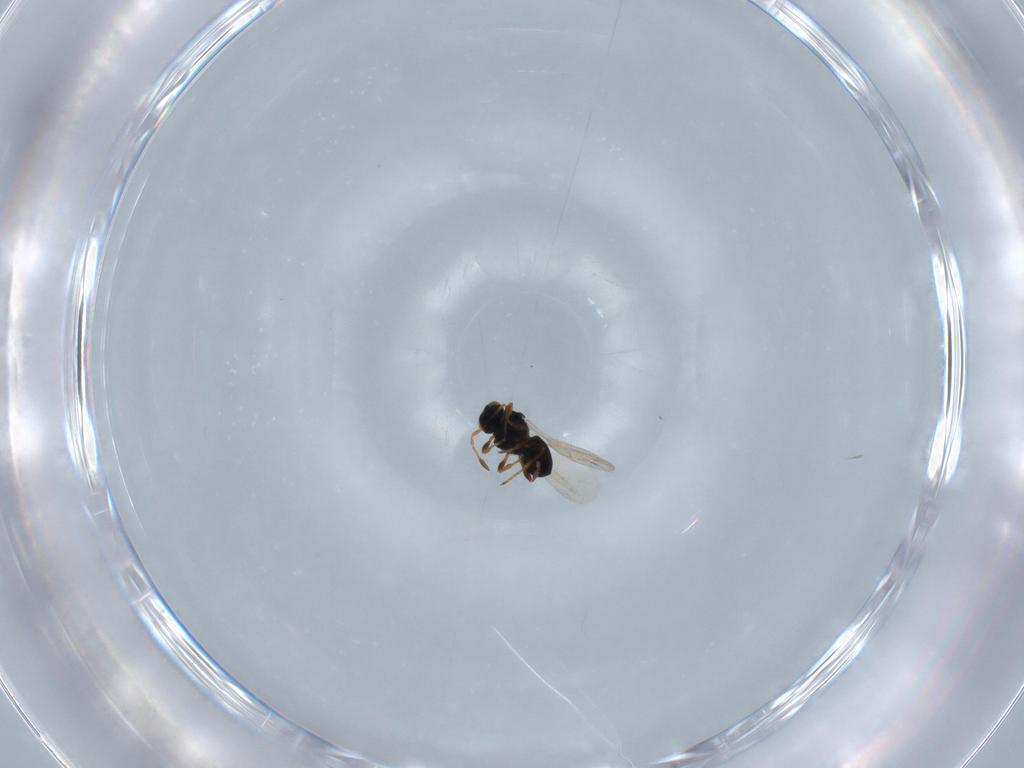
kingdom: Animalia
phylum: Arthropoda
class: Insecta
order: Hymenoptera
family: Platygastridae
